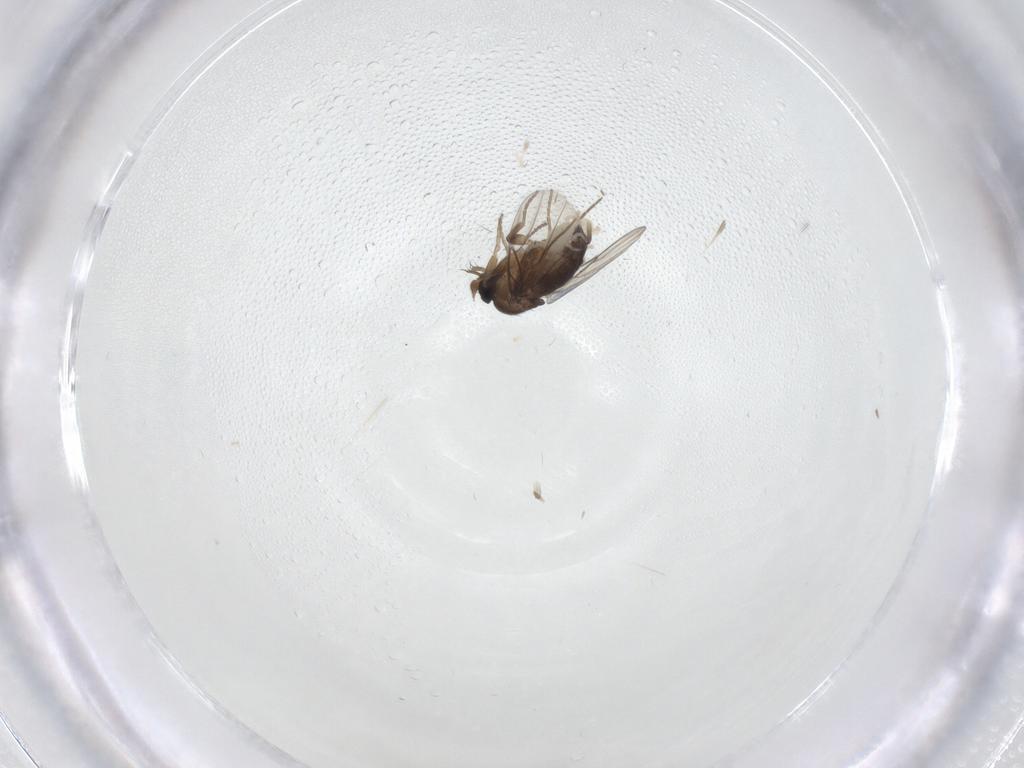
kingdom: Animalia
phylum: Arthropoda
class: Insecta
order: Diptera
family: Phoridae
